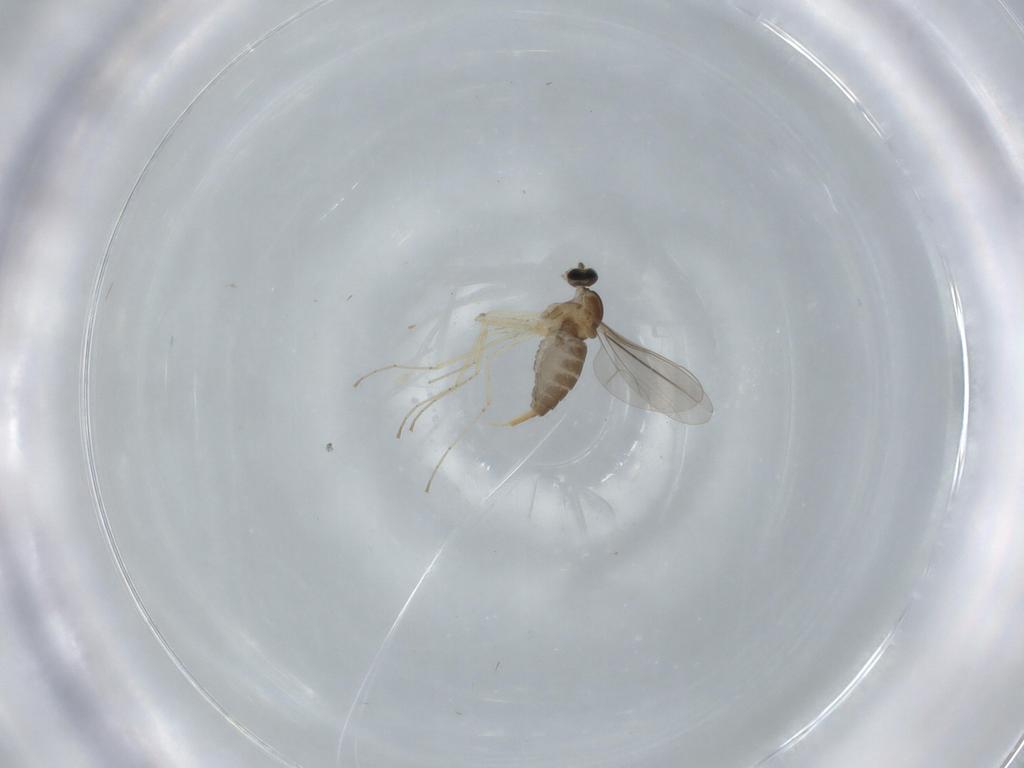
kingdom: Animalia
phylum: Arthropoda
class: Insecta
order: Diptera
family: Cecidomyiidae
